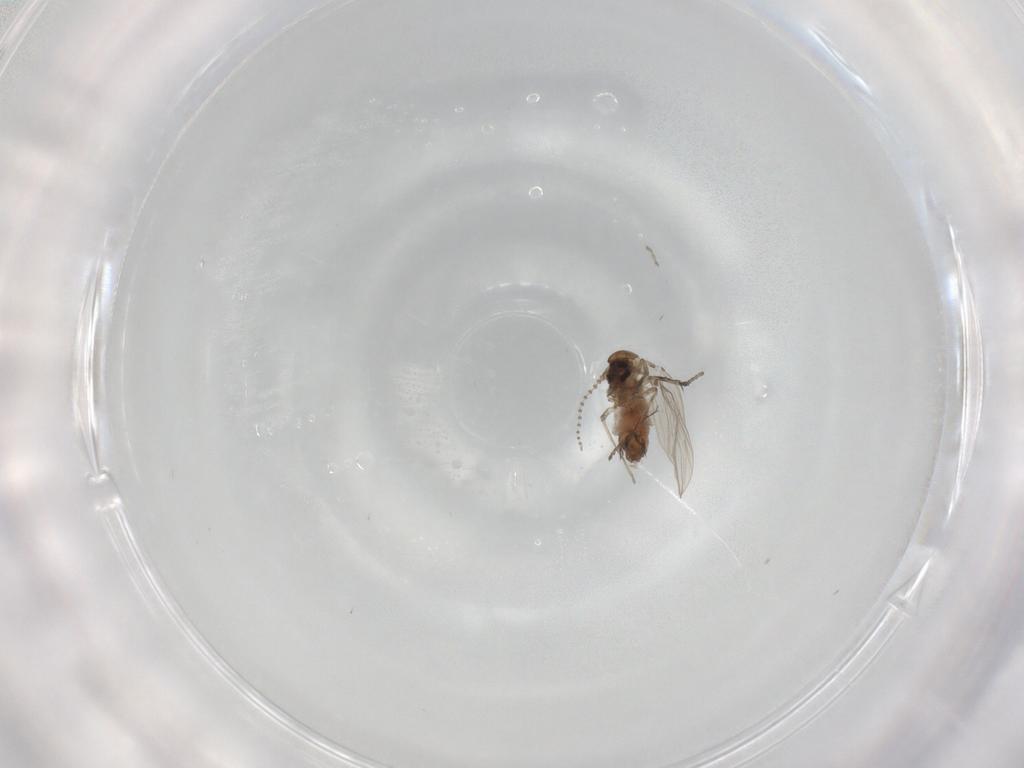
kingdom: Animalia
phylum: Arthropoda
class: Insecta
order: Diptera
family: Psychodidae
